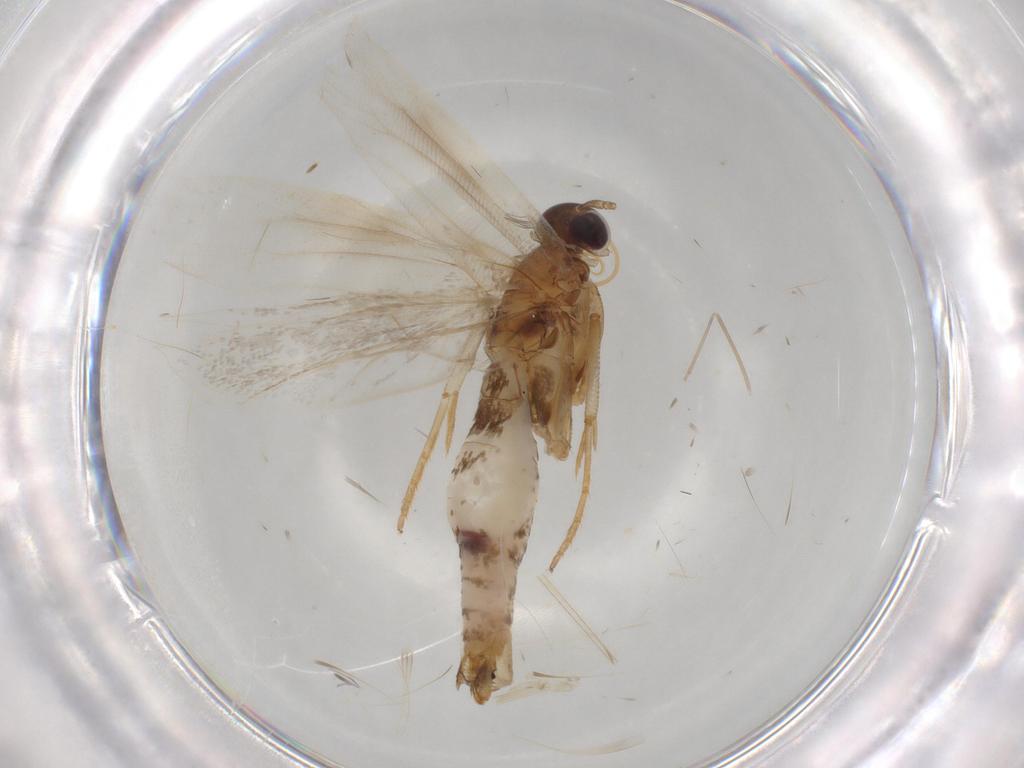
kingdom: Animalia
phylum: Arthropoda
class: Insecta
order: Lepidoptera
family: Gelechiidae
